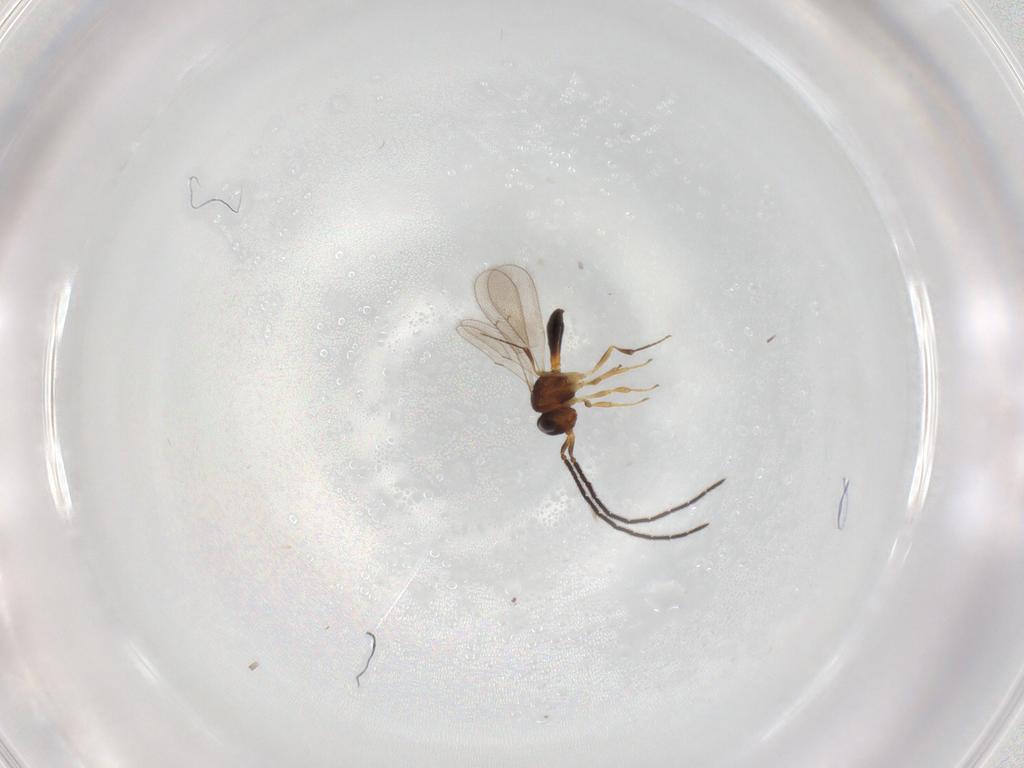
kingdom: Animalia
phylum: Arthropoda
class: Insecta
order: Hymenoptera
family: Scelionidae
